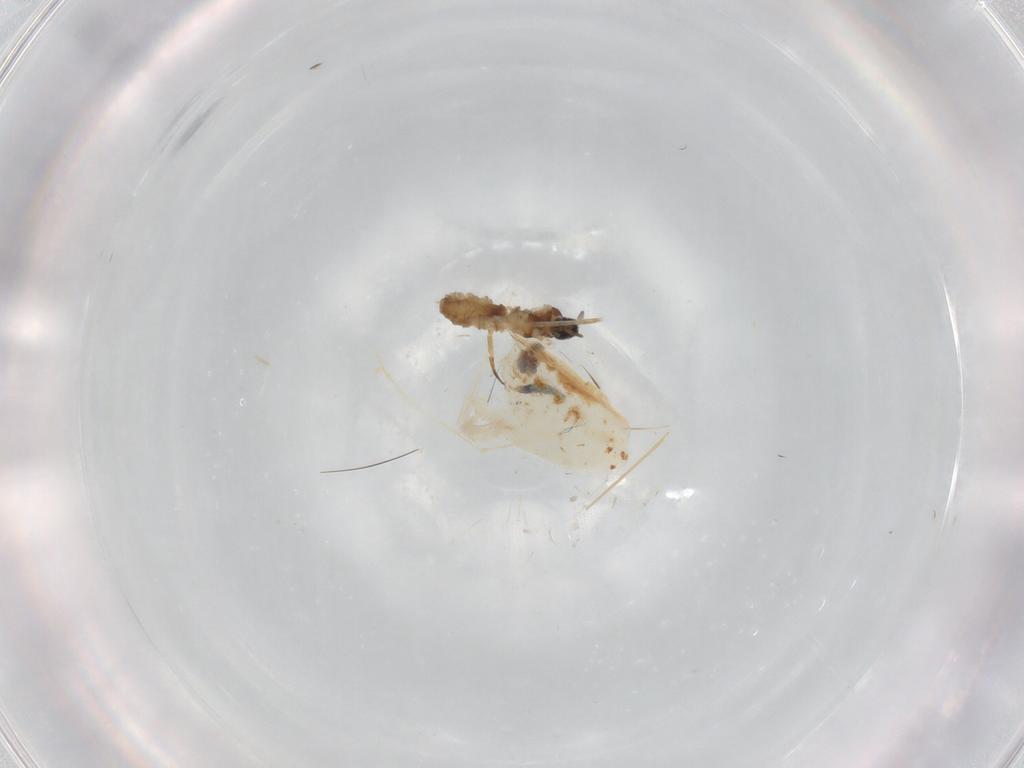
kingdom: Animalia
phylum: Arthropoda
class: Insecta
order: Diptera
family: Cecidomyiidae
